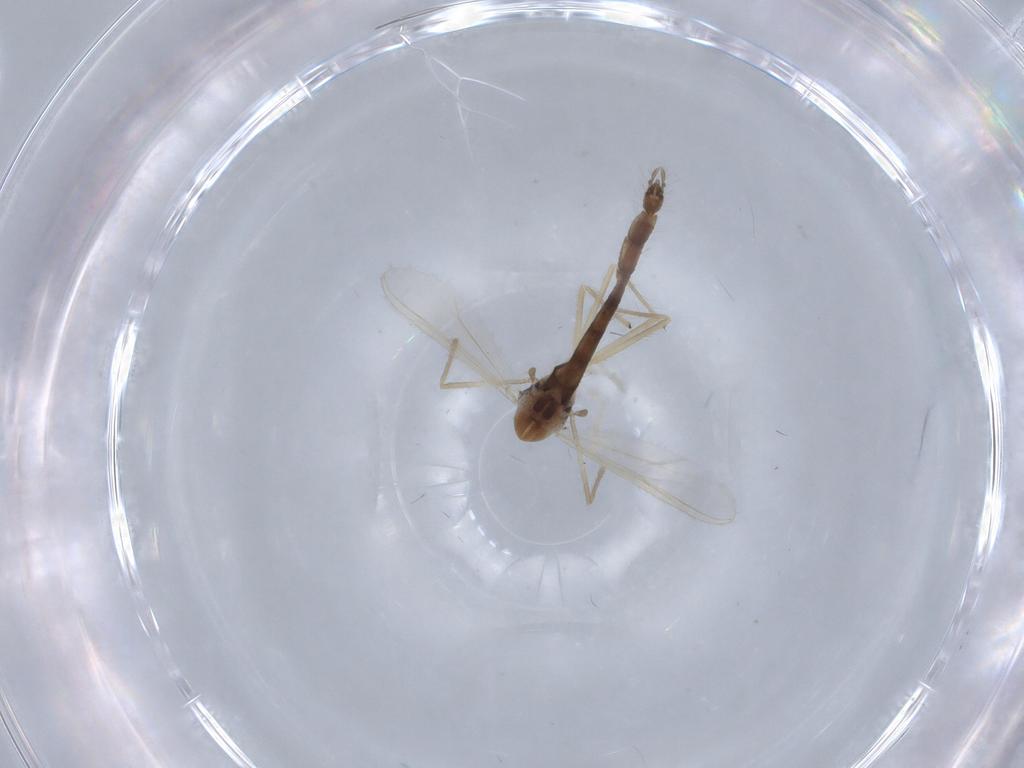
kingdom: Animalia
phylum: Arthropoda
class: Insecta
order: Diptera
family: Chironomidae
